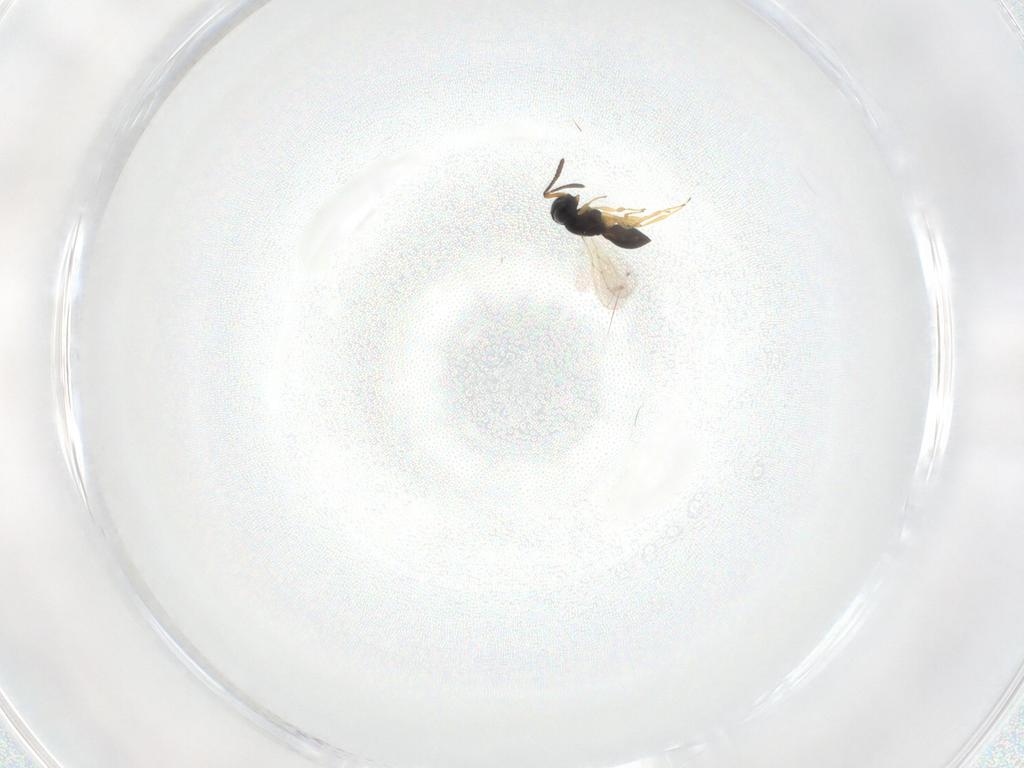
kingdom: Animalia
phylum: Arthropoda
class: Insecta
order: Hymenoptera
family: Scelionidae
